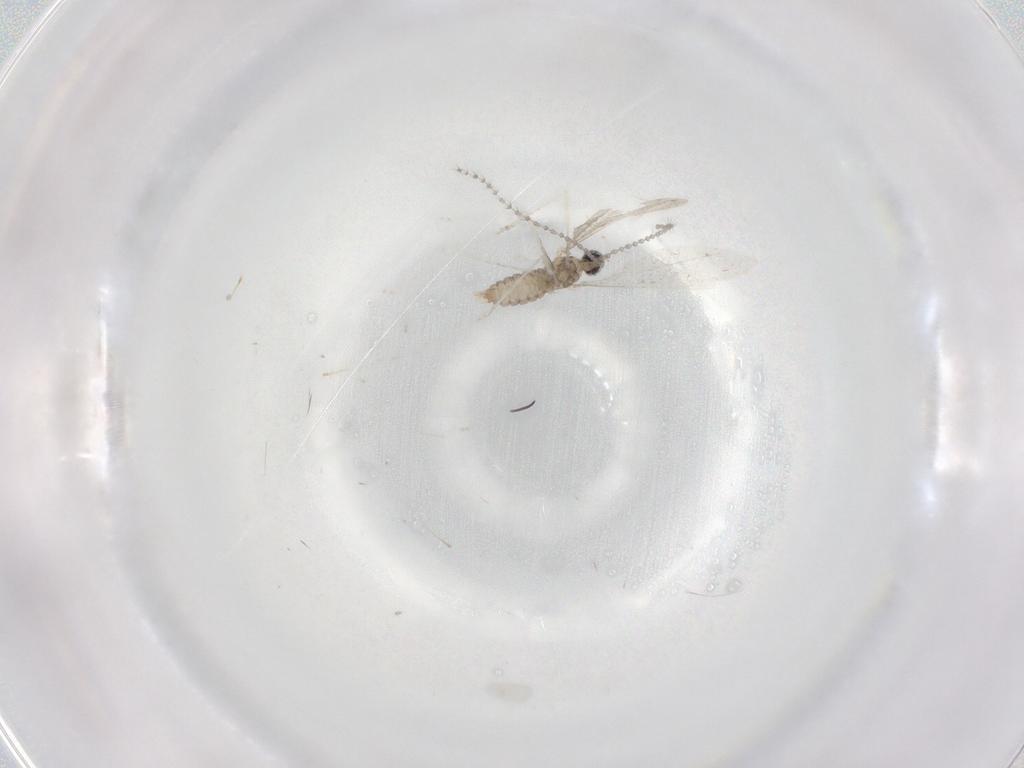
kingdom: Animalia
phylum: Arthropoda
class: Insecta
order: Diptera
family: Cecidomyiidae
